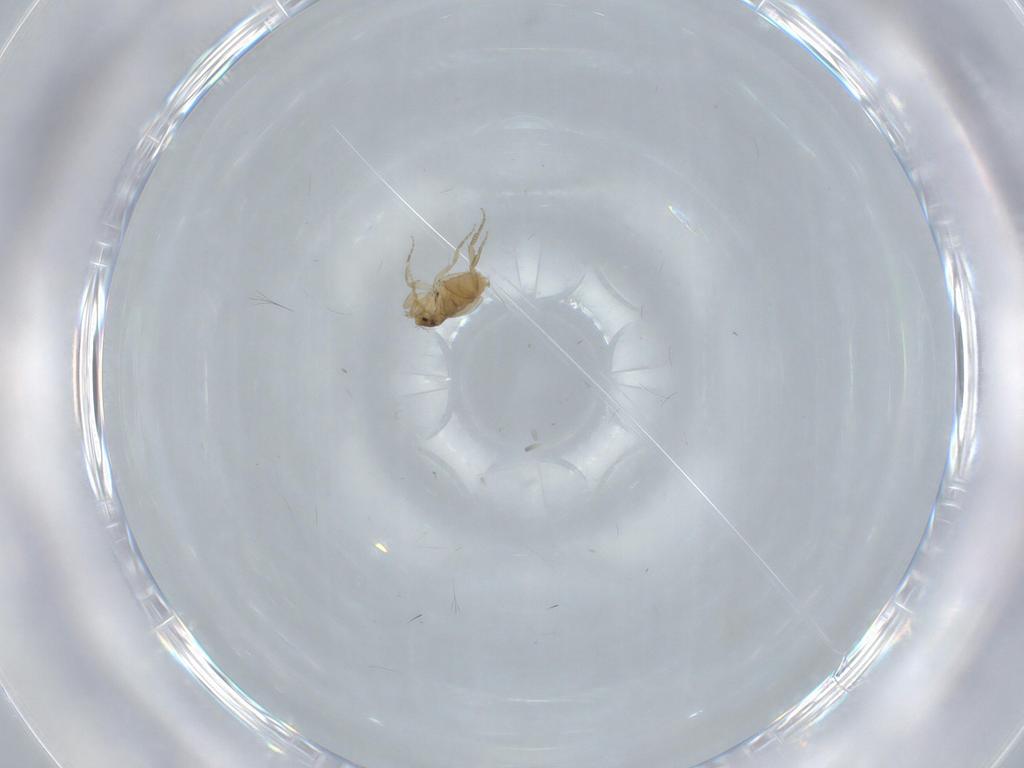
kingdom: Animalia
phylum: Arthropoda
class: Insecta
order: Diptera
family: Phoridae
